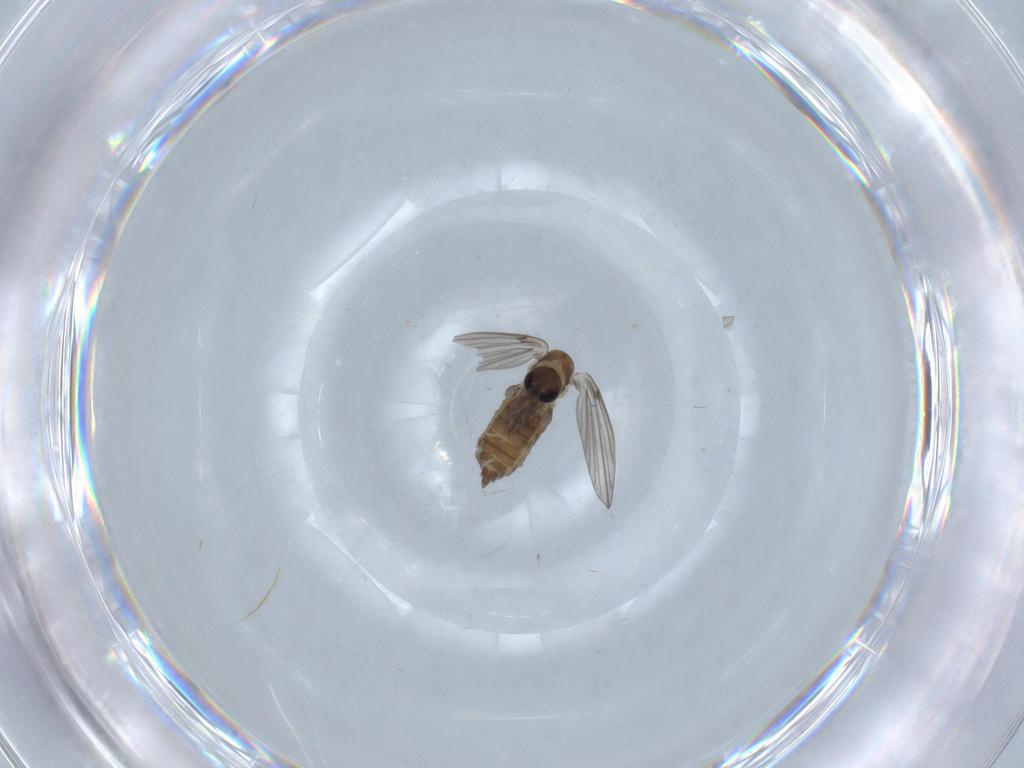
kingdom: Animalia
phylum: Arthropoda
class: Insecta
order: Diptera
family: Psychodidae
